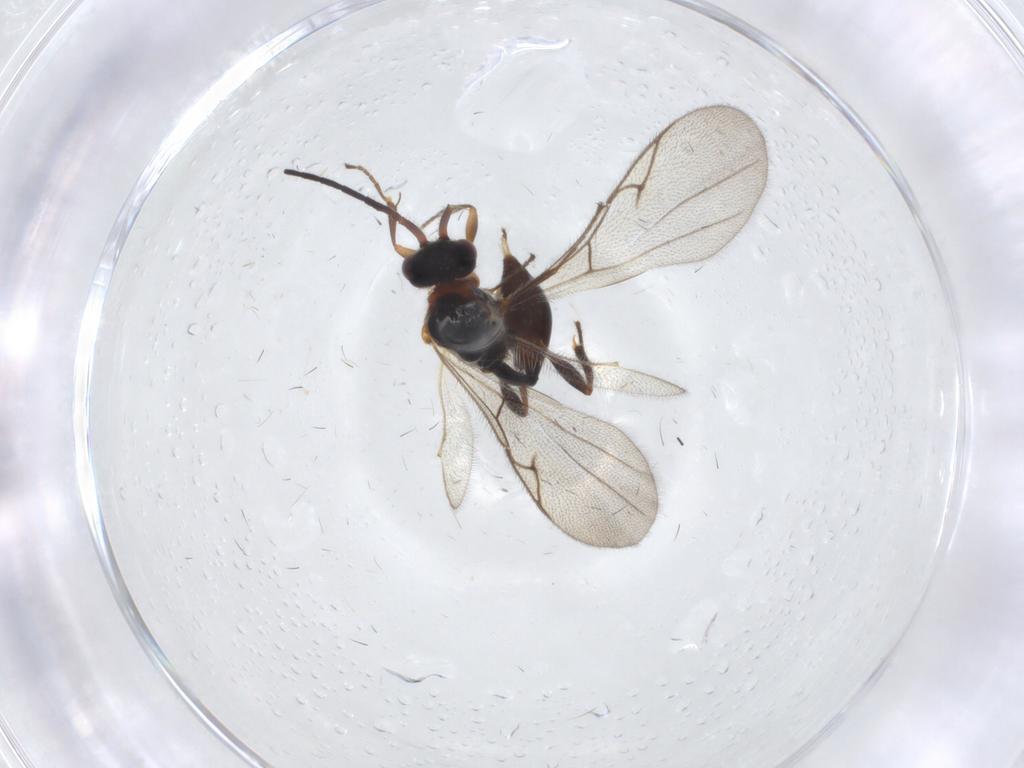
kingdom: Animalia
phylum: Arthropoda
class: Insecta
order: Hymenoptera
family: Diapriidae
